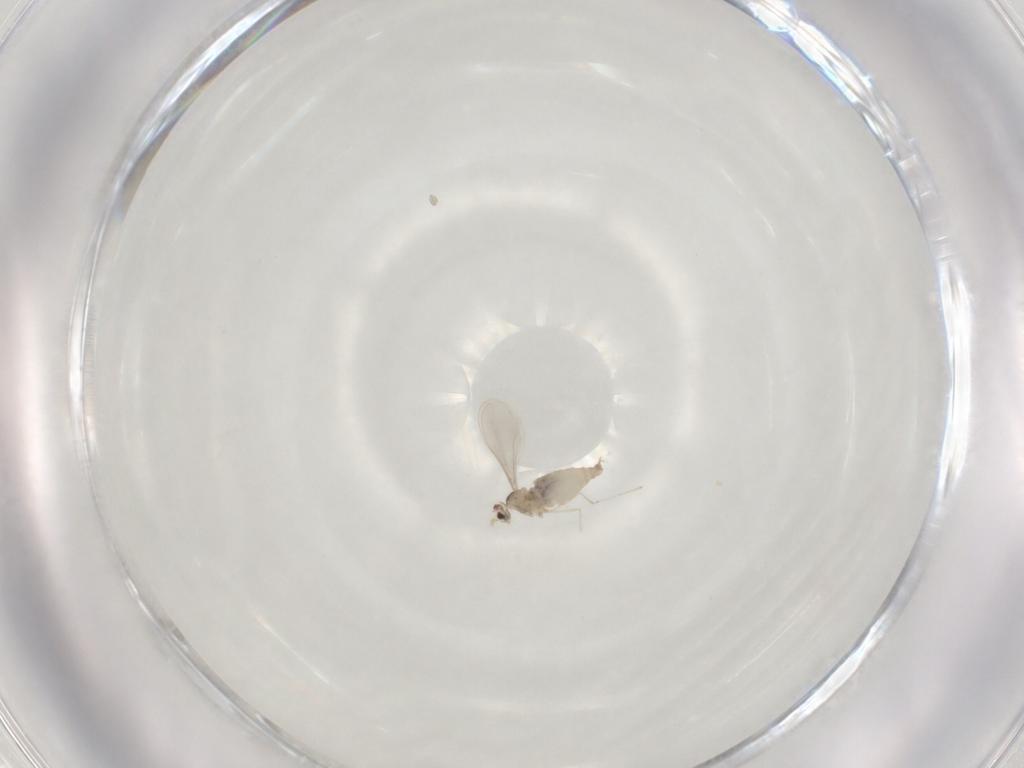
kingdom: Animalia
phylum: Arthropoda
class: Insecta
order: Diptera
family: Cecidomyiidae
